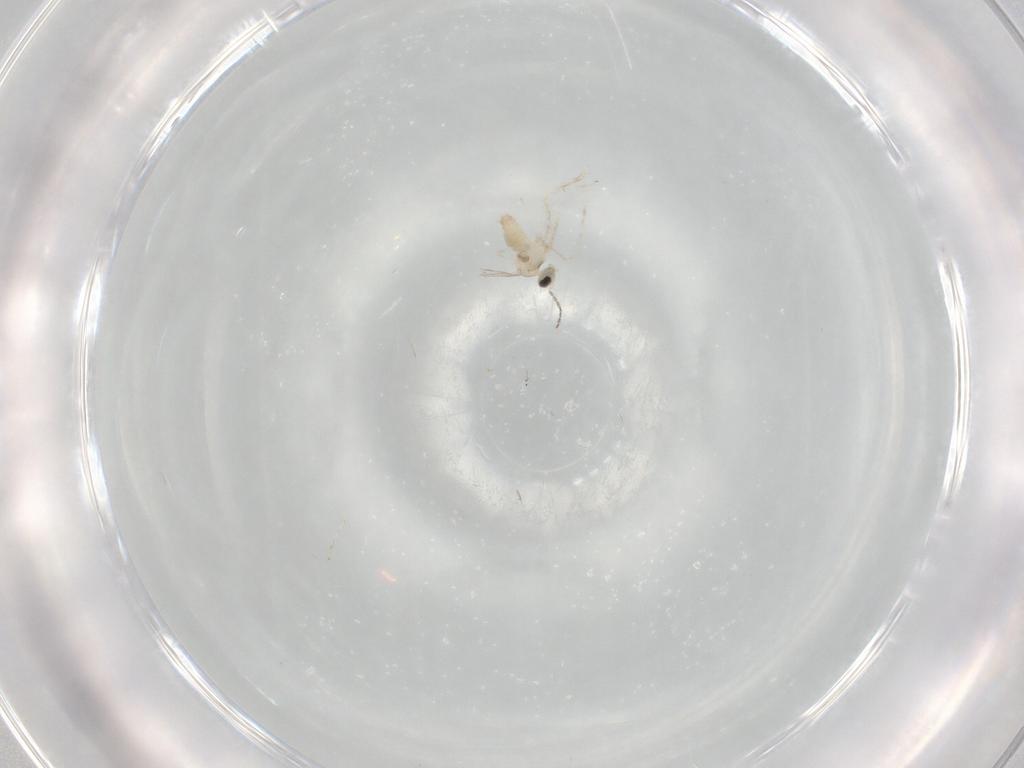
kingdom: Animalia
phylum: Arthropoda
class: Insecta
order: Diptera
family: Cecidomyiidae
